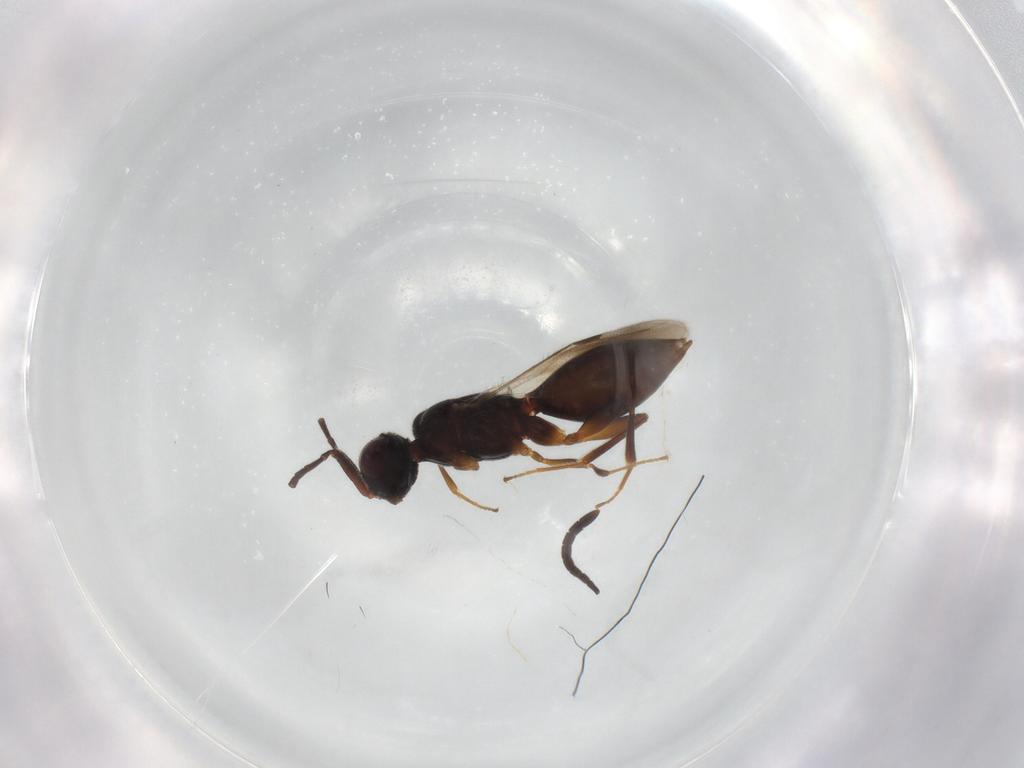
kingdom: Animalia
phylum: Arthropoda
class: Insecta
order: Hymenoptera
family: Megaspilidae
